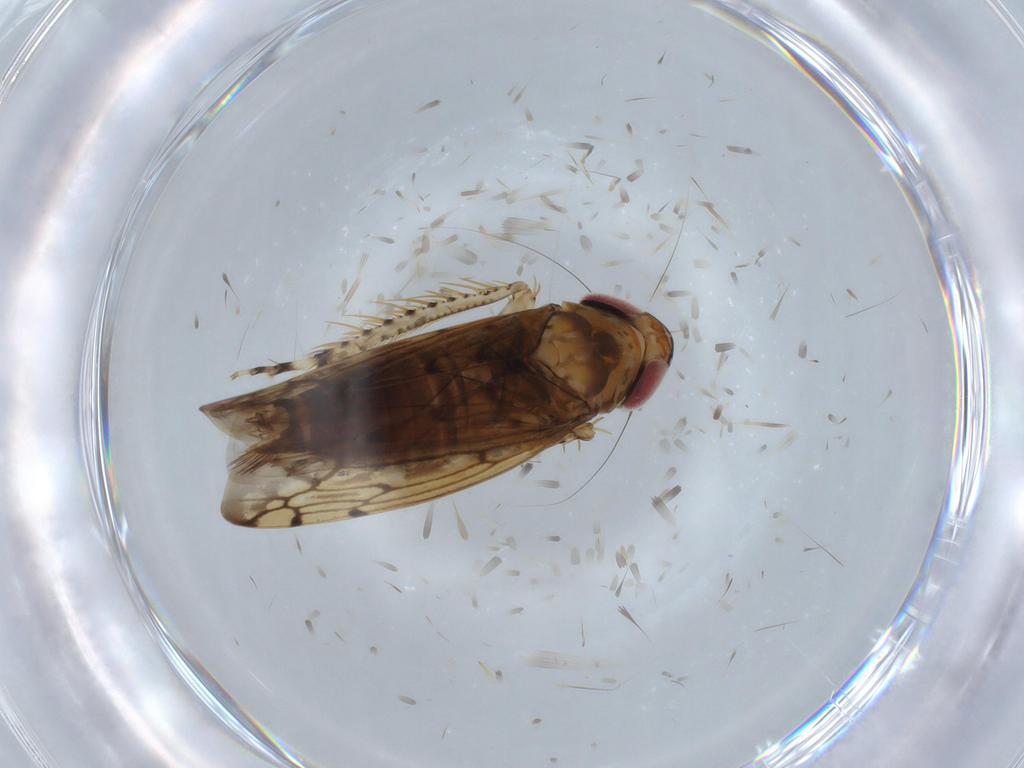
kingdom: Animalia
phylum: Arthropoda
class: Insecta
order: Hemiptera
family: Cicadellidae
